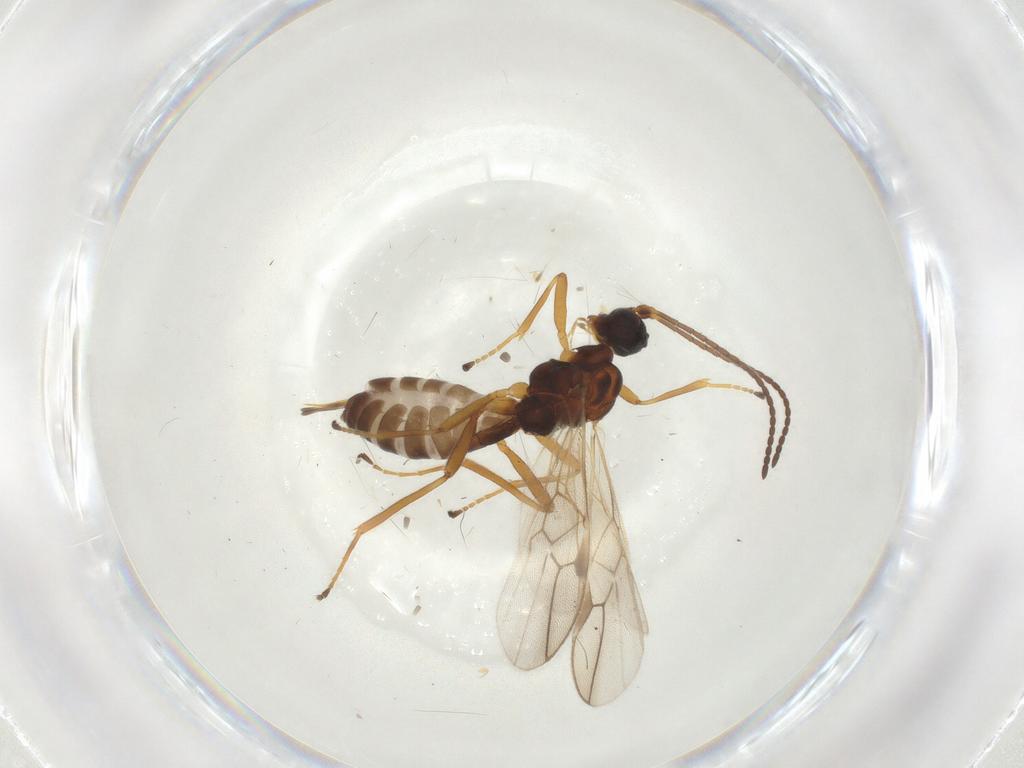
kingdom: Animalia
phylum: Arthropoda
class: Insecta
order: Hymenoptera
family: Braconidae
